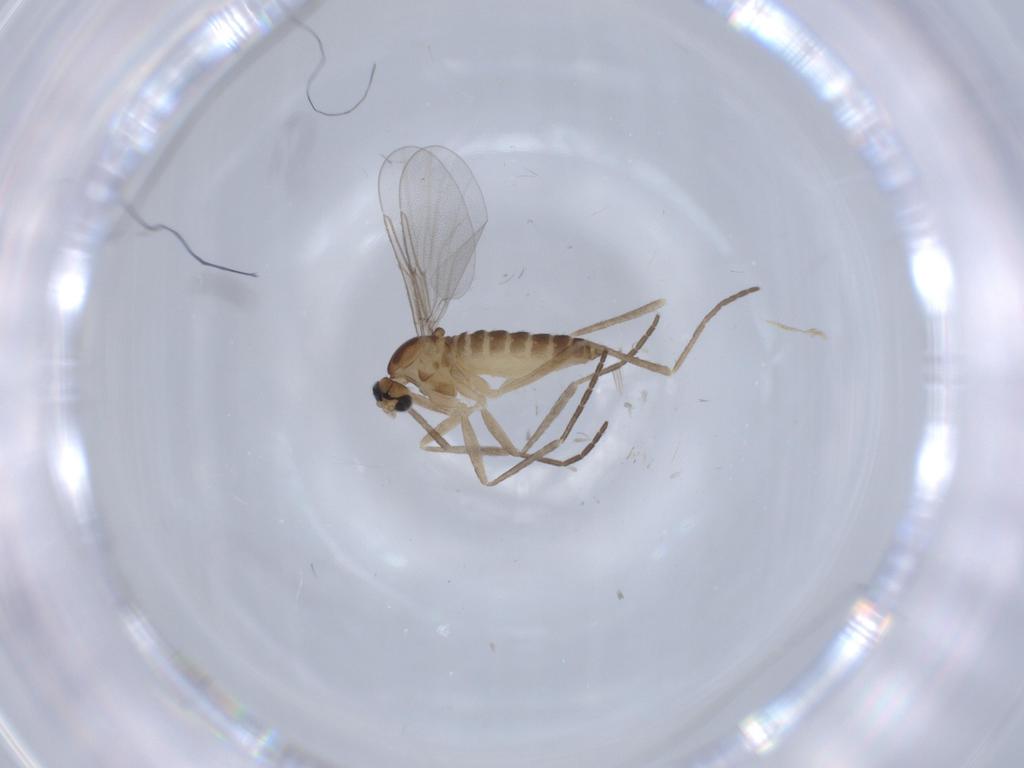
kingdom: Animalia
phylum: Arthropoda
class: Insecta
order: Diptera
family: Cecidomyiidae
